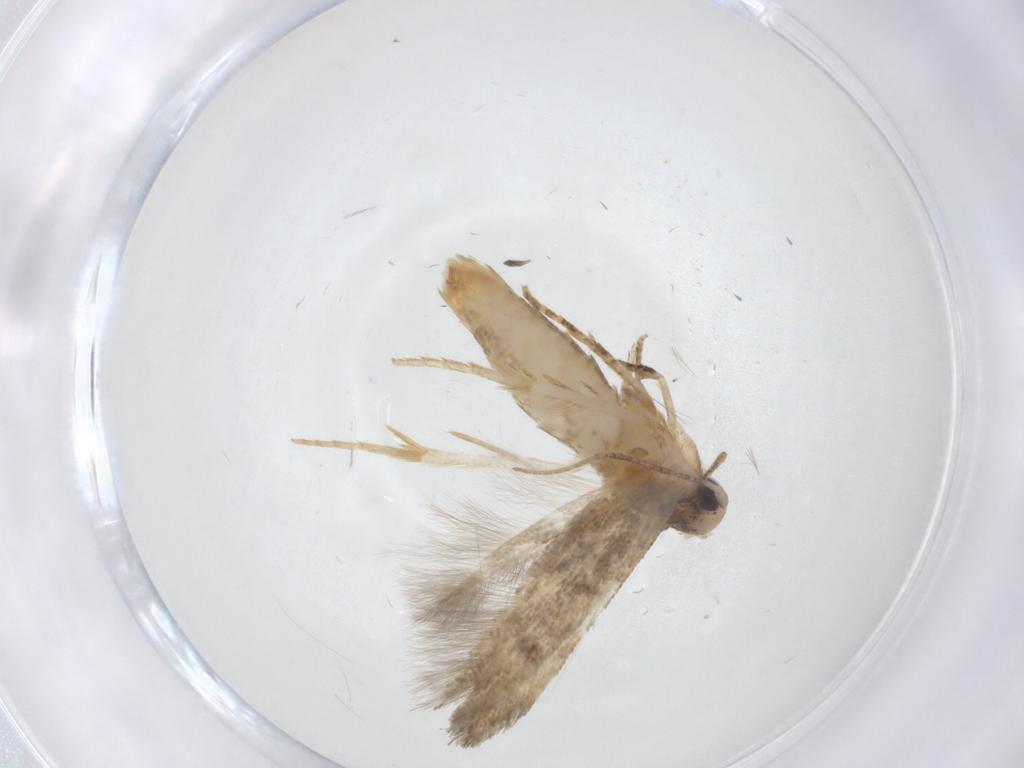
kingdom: Animalia
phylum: Arthropoda
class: Insecta
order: Lepidoptera
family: Gelechiidae
